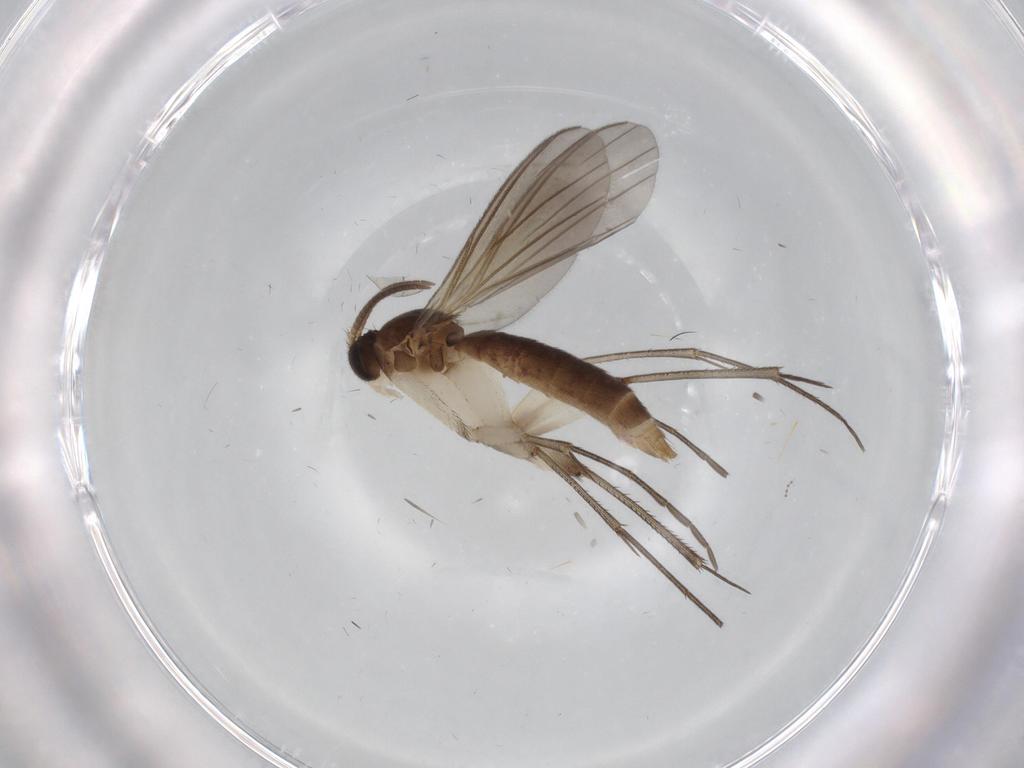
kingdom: Animalia
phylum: Arthropoda
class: Insecta
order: Diptera
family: Mycetophilidae
